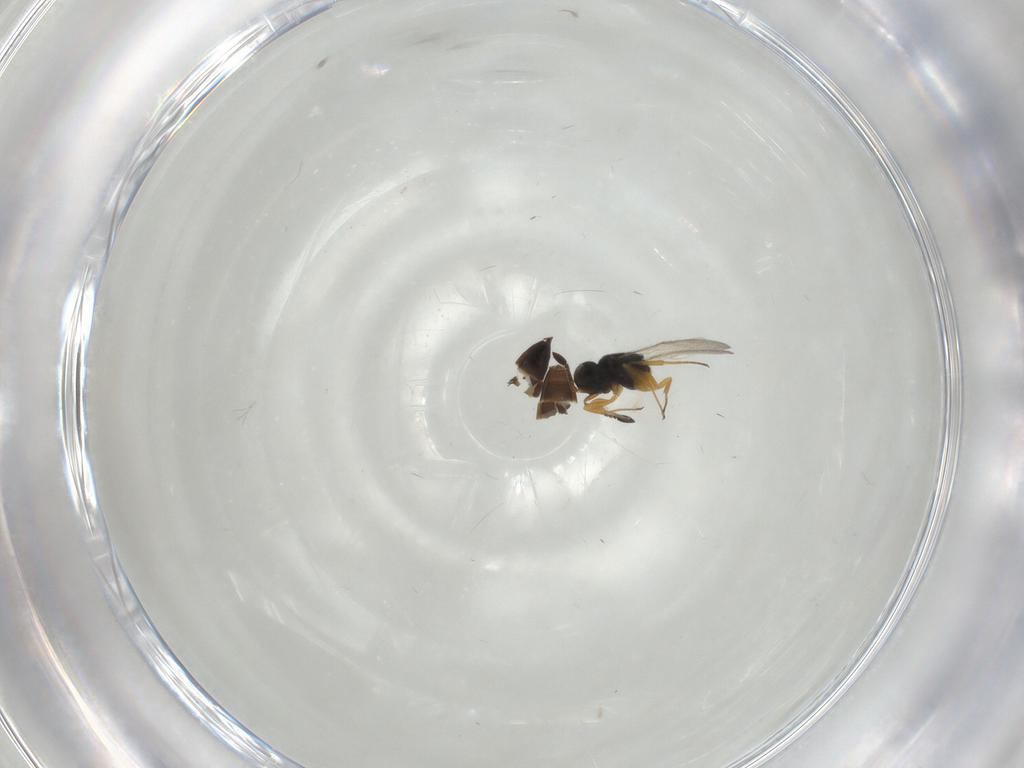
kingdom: Animalia
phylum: Arthropoda
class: Insecta
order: Hymenoptera
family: Scelionidae
